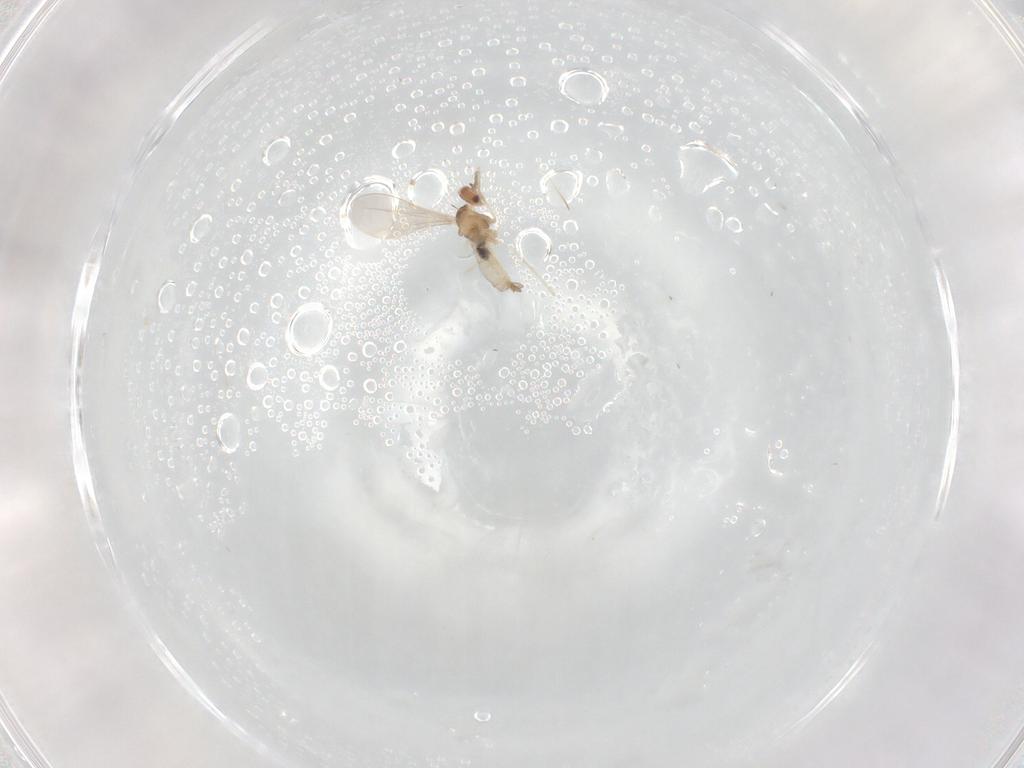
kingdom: Animalia
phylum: Arthropoda
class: Insecta
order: Diptera
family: Cecidomyiidae
